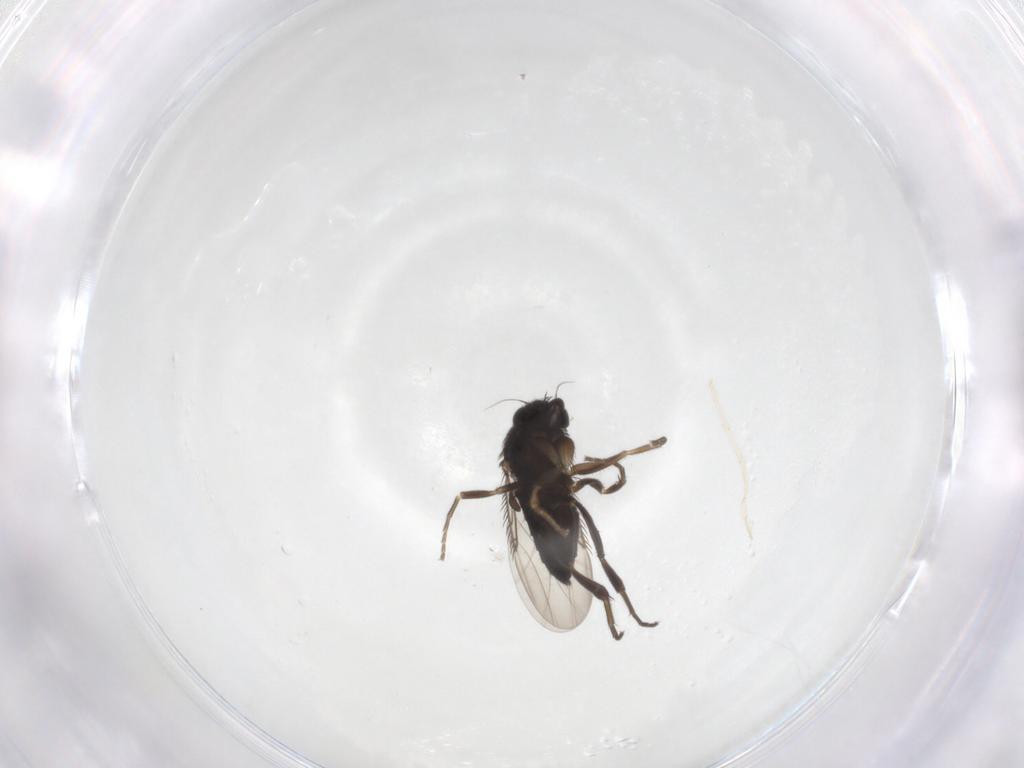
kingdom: Animalia
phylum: Arthropoda
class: Insecta
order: Diptera
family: Phoridae
